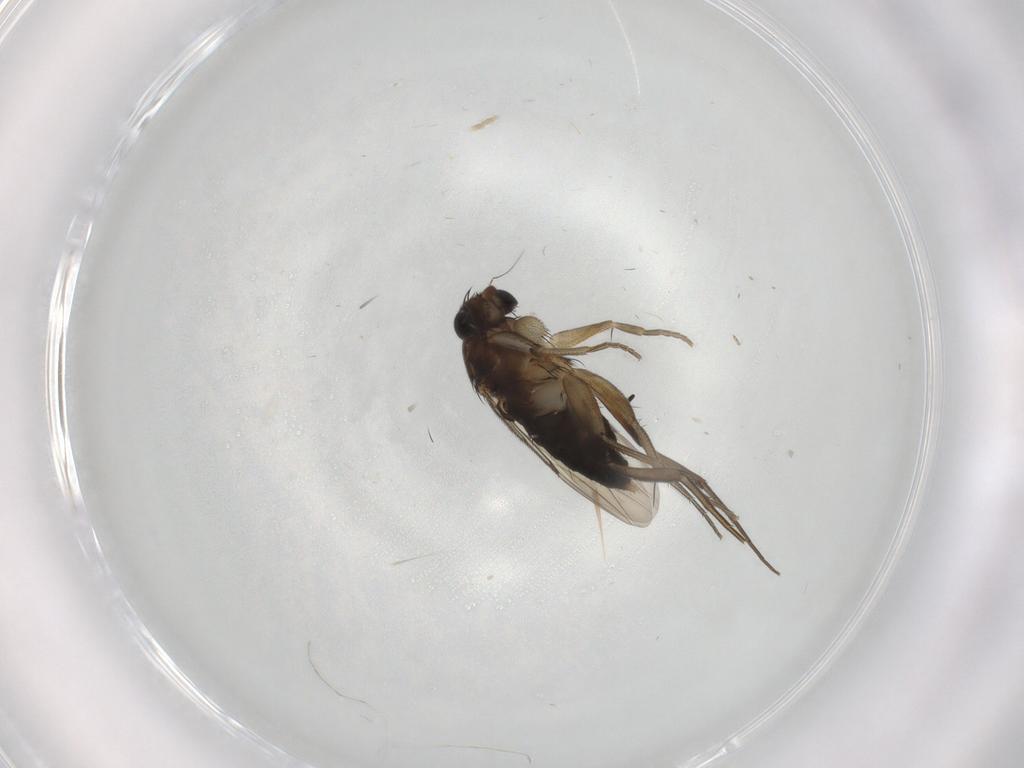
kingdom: Animalia
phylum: Arthropoda
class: Insecta
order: Diptera
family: Phoridae
